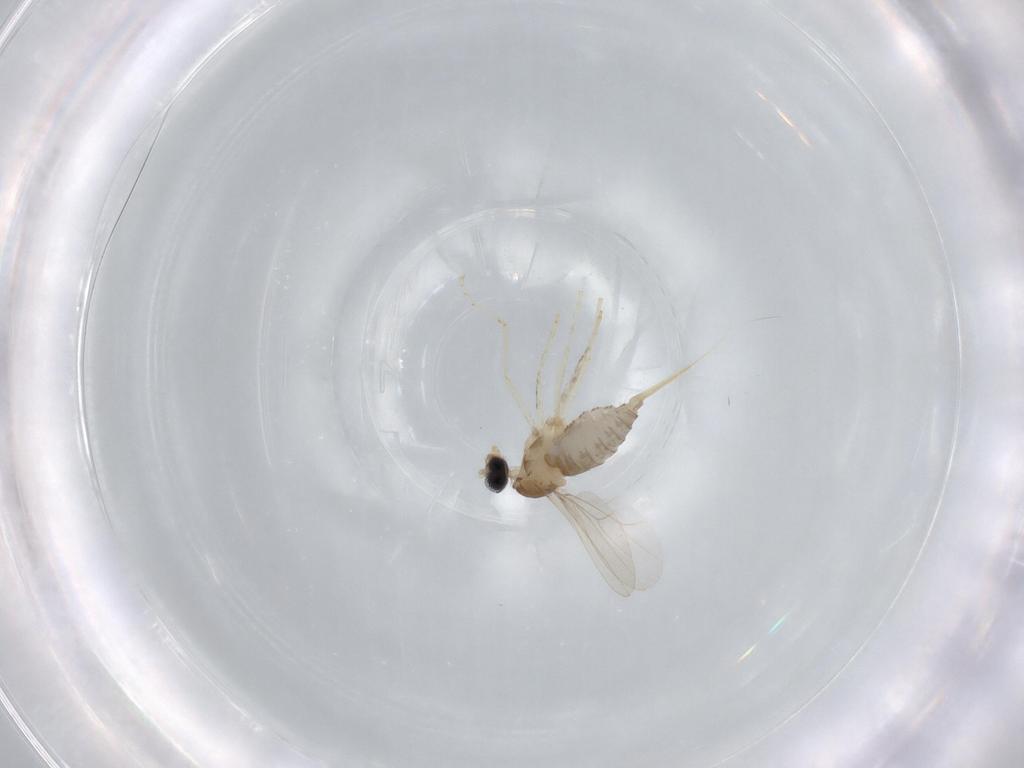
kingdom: Animalia
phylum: Arthropoda
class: Insecta
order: Diptera
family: Cecidomyiidae
